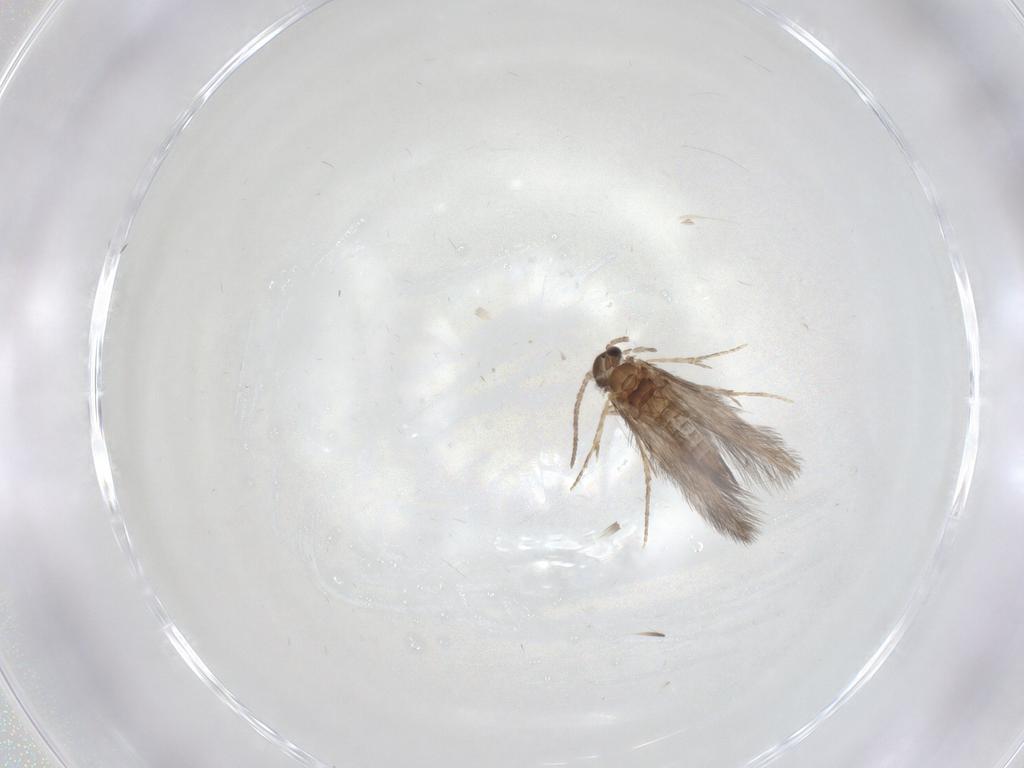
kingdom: Animalia
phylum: Arthropoda
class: Insecta
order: Trichoptera
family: Hydroptilidae
